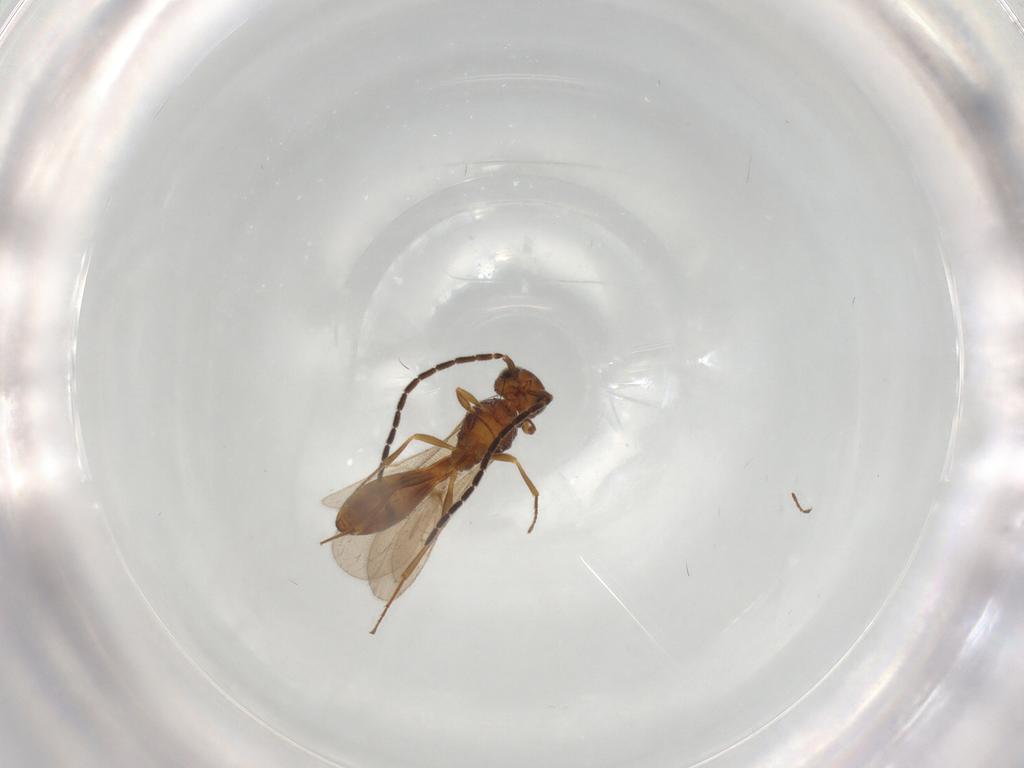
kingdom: Animalia
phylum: Arthropoda
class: Insecta
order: Hymenoptera
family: Scelionidae
